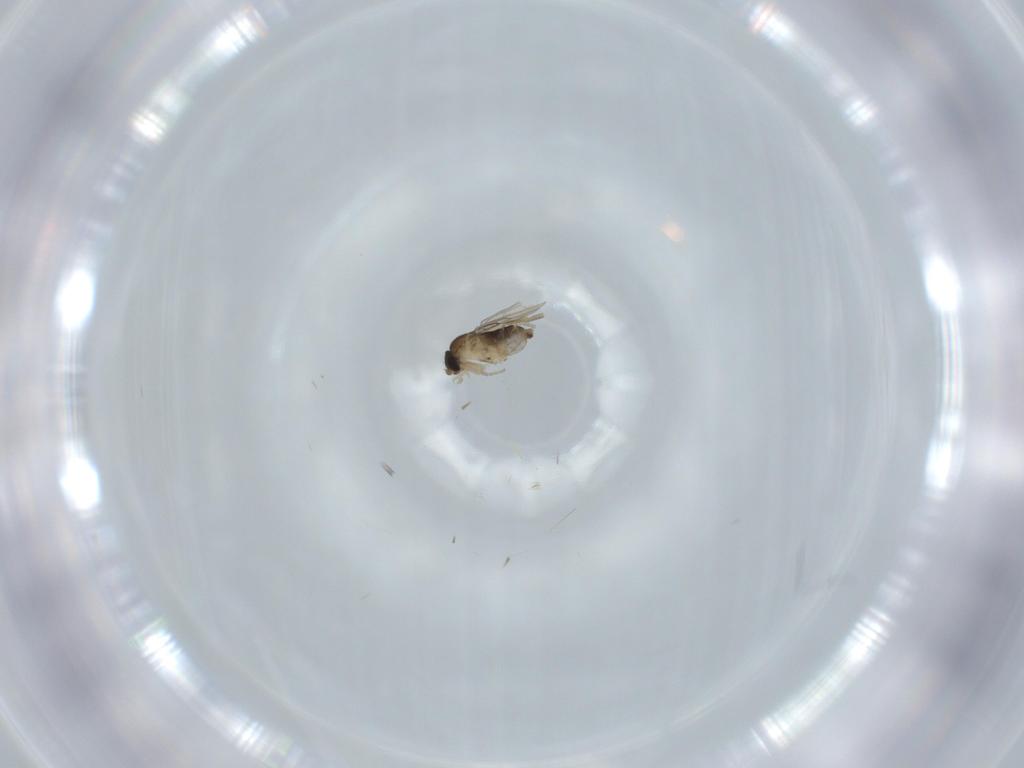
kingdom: Animalia
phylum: Arthropoda
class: Insecta
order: Diptera
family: Phoridae
